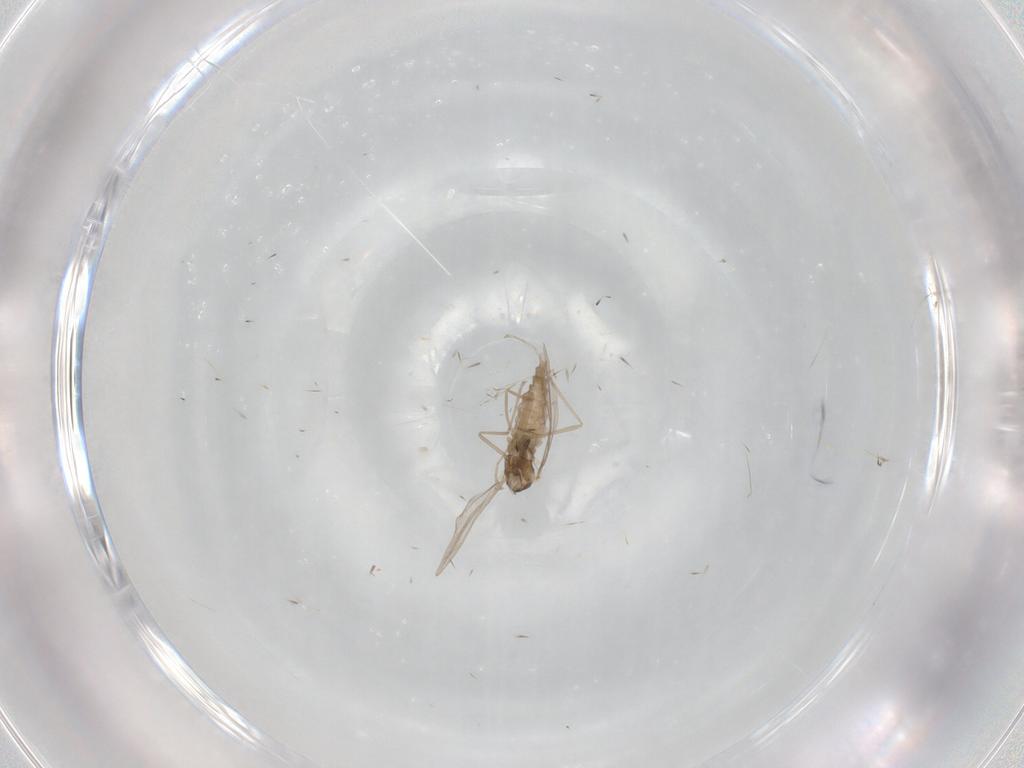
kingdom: Animalia
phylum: Arthropoda
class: Insecta
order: Diptera
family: Cecidomyiidae
